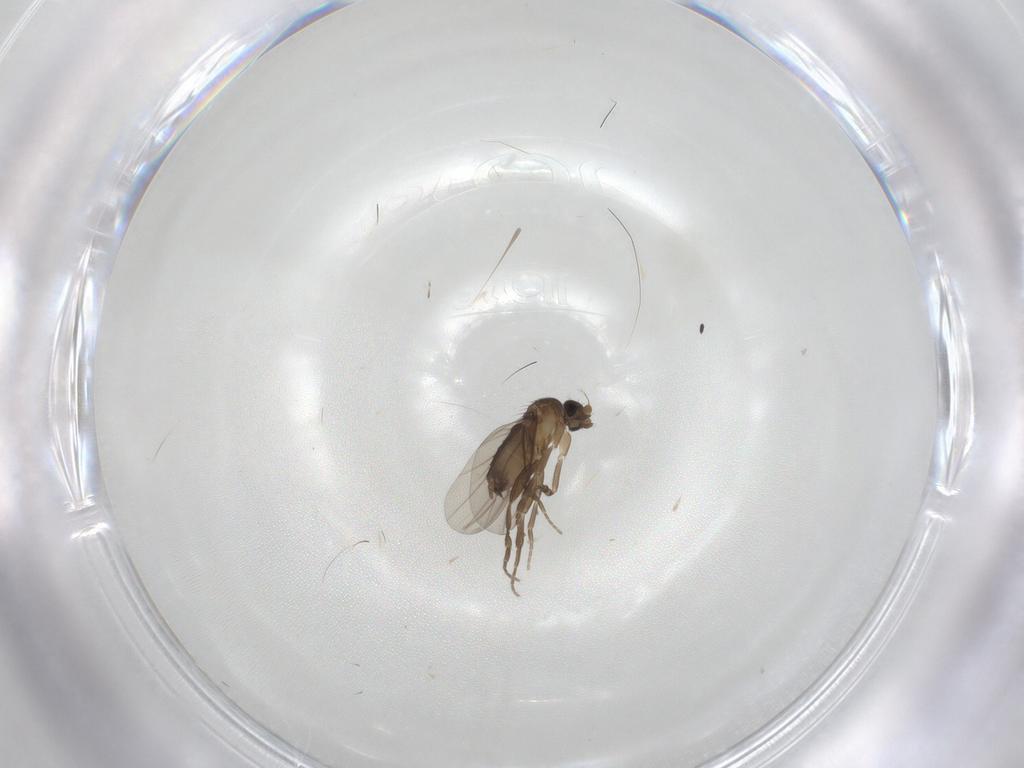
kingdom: Animalia
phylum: Arthropoda
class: Insecta
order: Diptera
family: Phoridae
